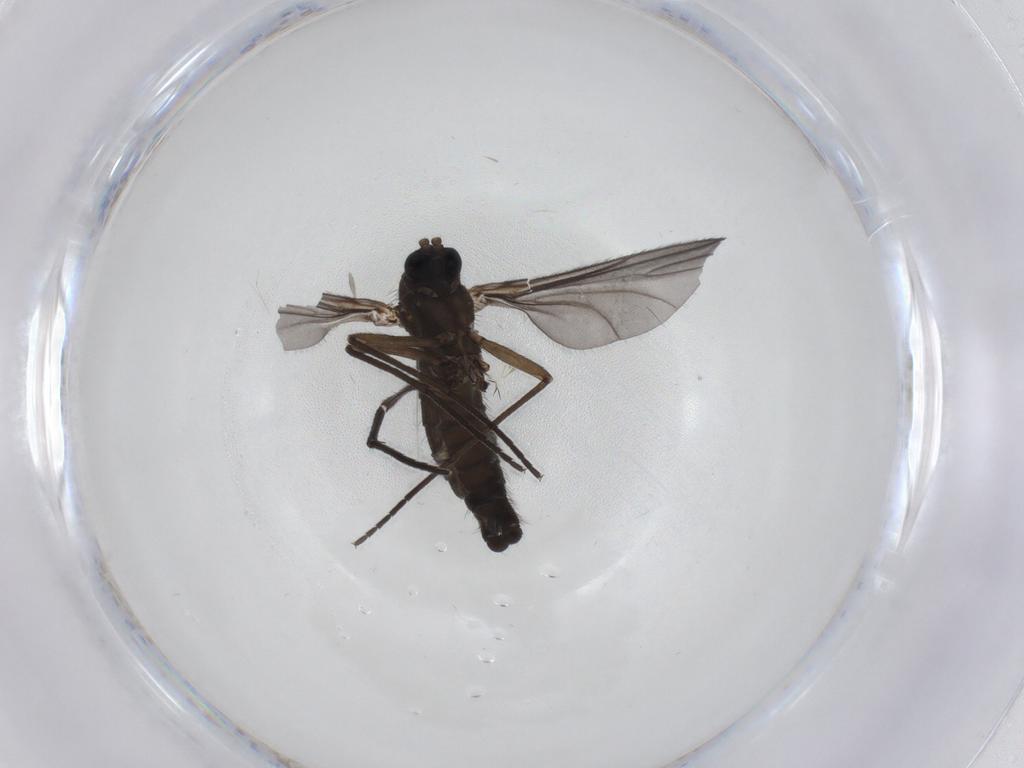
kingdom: Animalia
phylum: Arthropoda
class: Insecta
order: Diptera
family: Sciaridae
